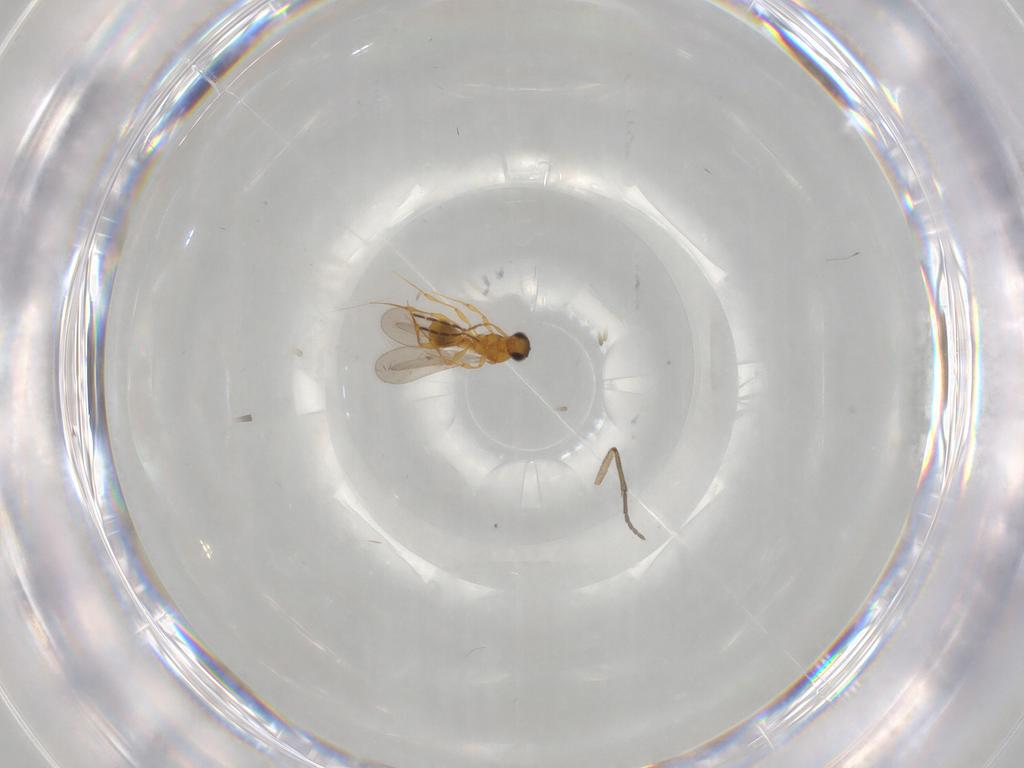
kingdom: Animalia
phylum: Arthropoda
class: Insecta
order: Hymenoptera
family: Platygastridae
